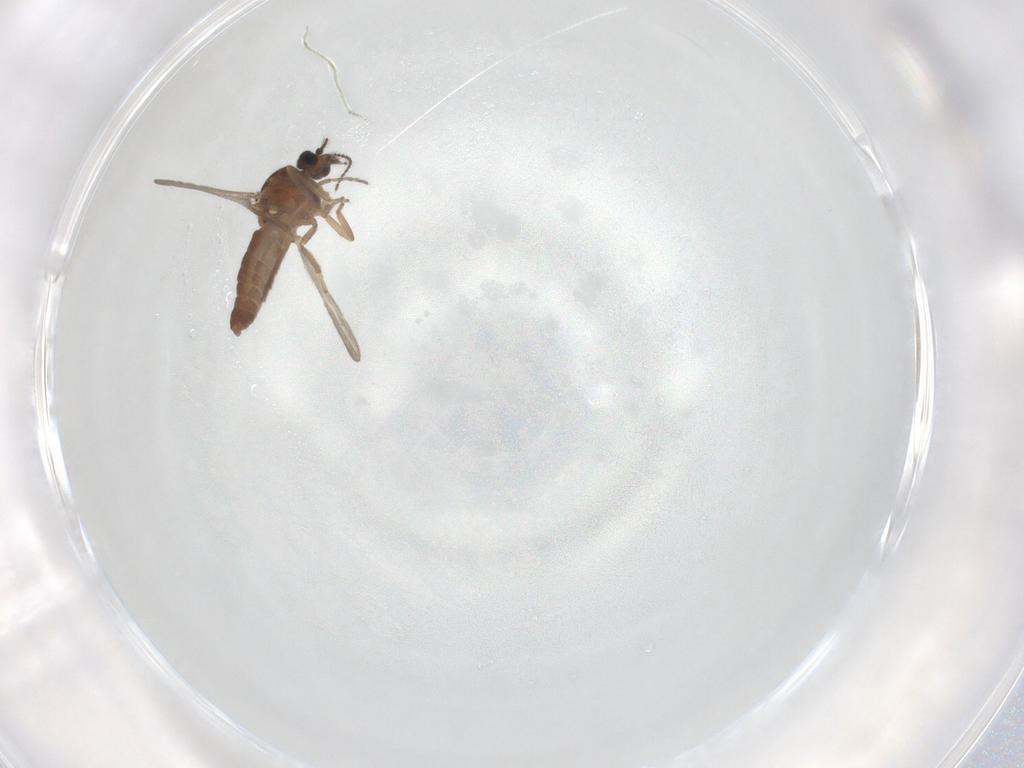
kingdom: Animalia
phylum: Arthropoda
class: Insecta
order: Diptera
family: Ceratopogonidae
